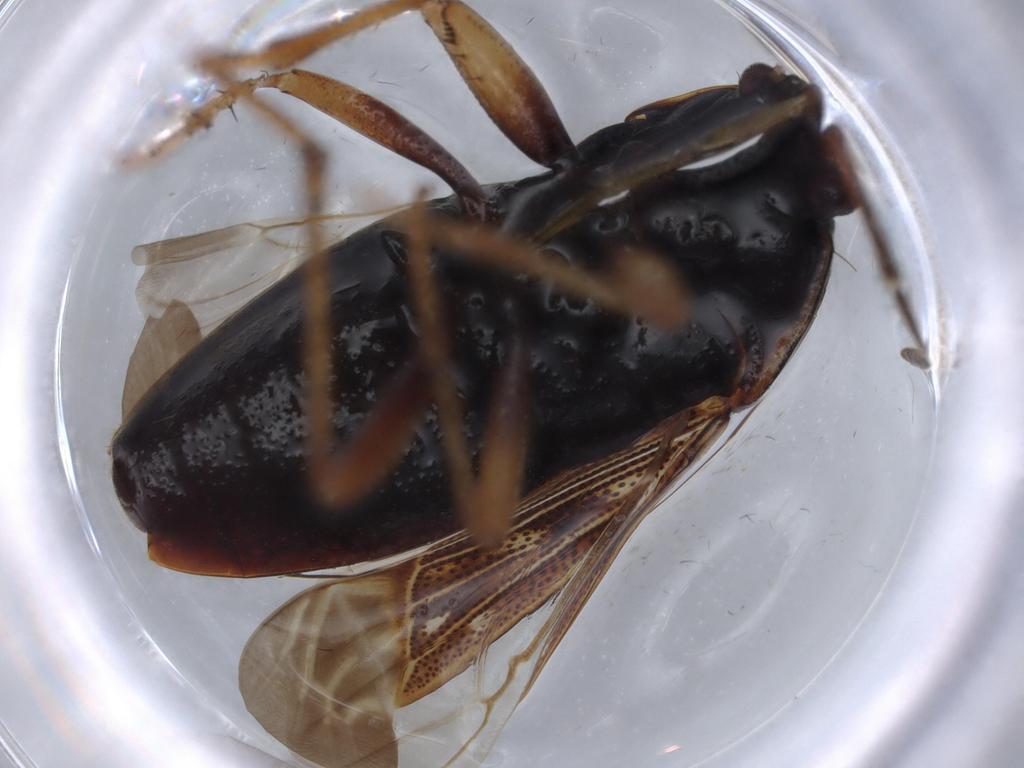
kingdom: Animalia
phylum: Arthropoda
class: Insecta
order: Hemiptera
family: Rhyparochromidae
